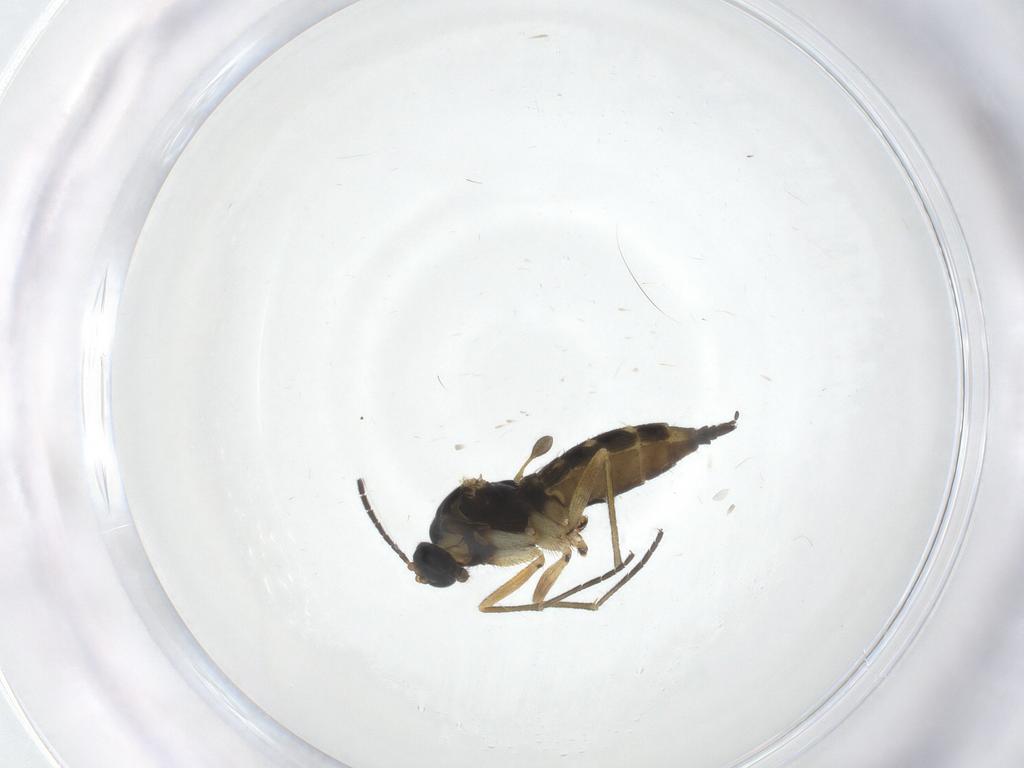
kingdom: Animalia
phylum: Arthropoda
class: Insecta
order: Diptera
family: Sciaridae
